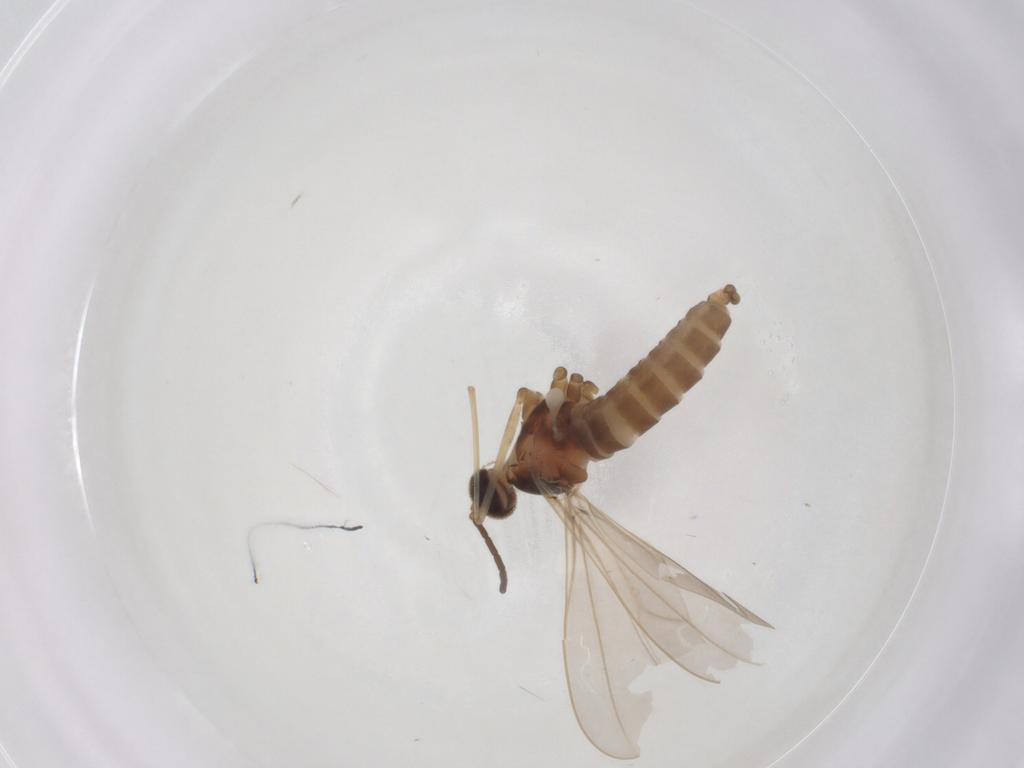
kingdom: Animalia
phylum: Arthropoda
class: Insecta
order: Diptera
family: Cecidomyiidae
